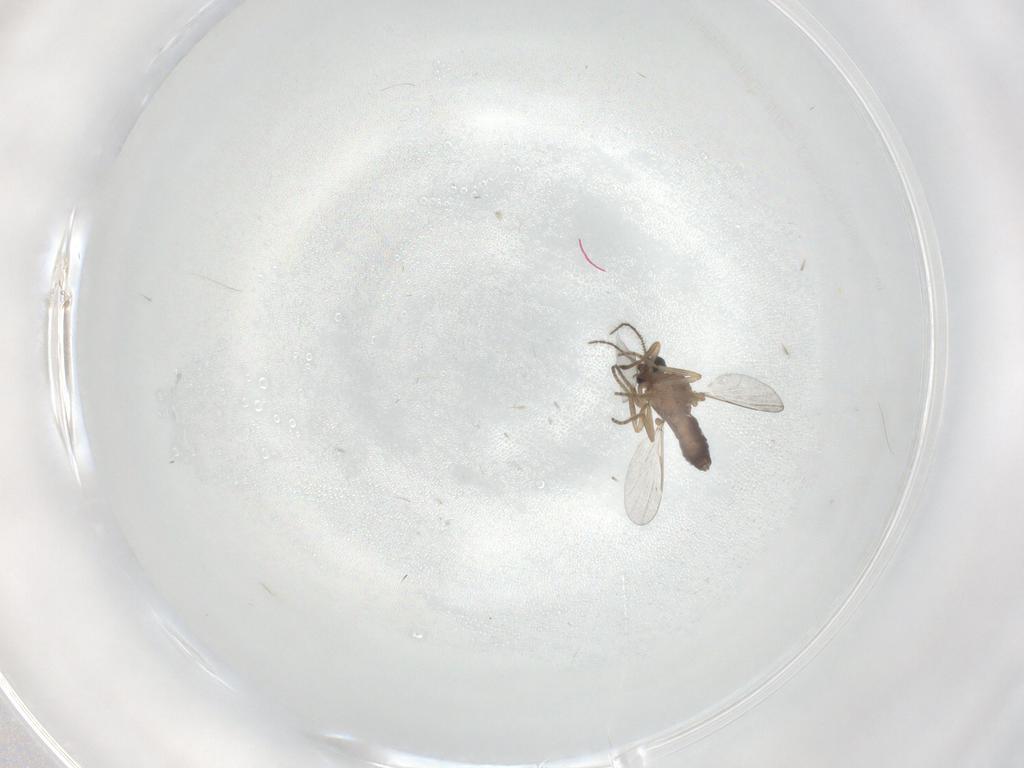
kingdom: Animalia
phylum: Arthropoda
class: Insecta
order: Diptera
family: Ceratopogonidae
